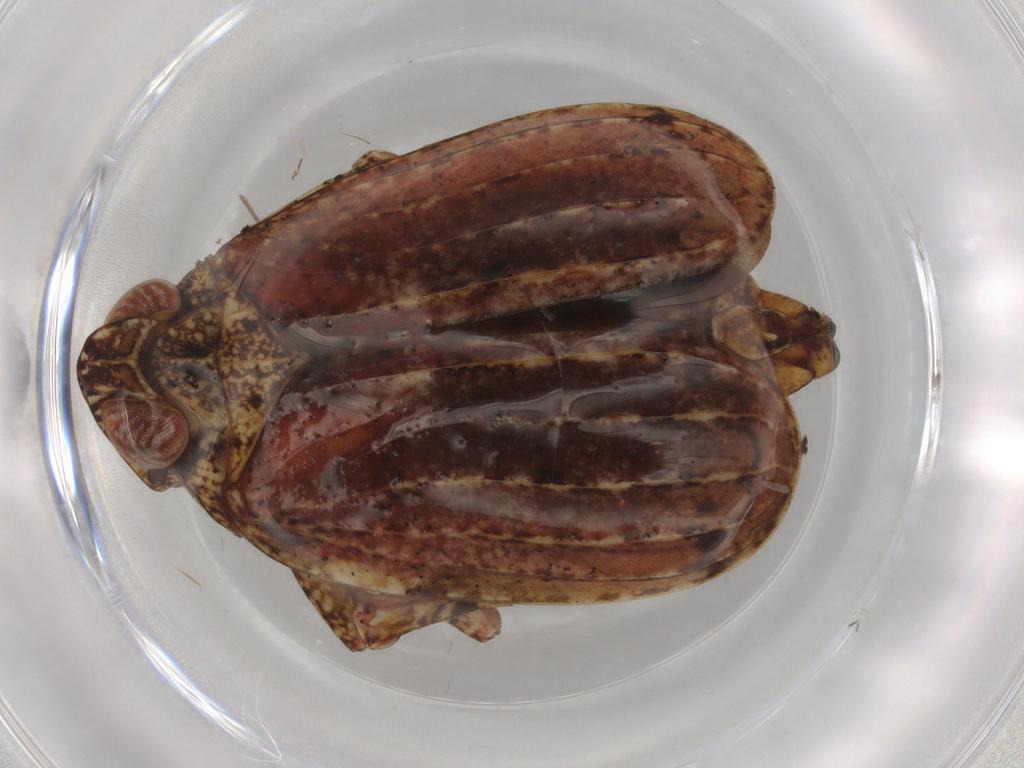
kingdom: Animalia
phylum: Arthropoda
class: Insecta
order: Hemiptera
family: Tropiduchidae
